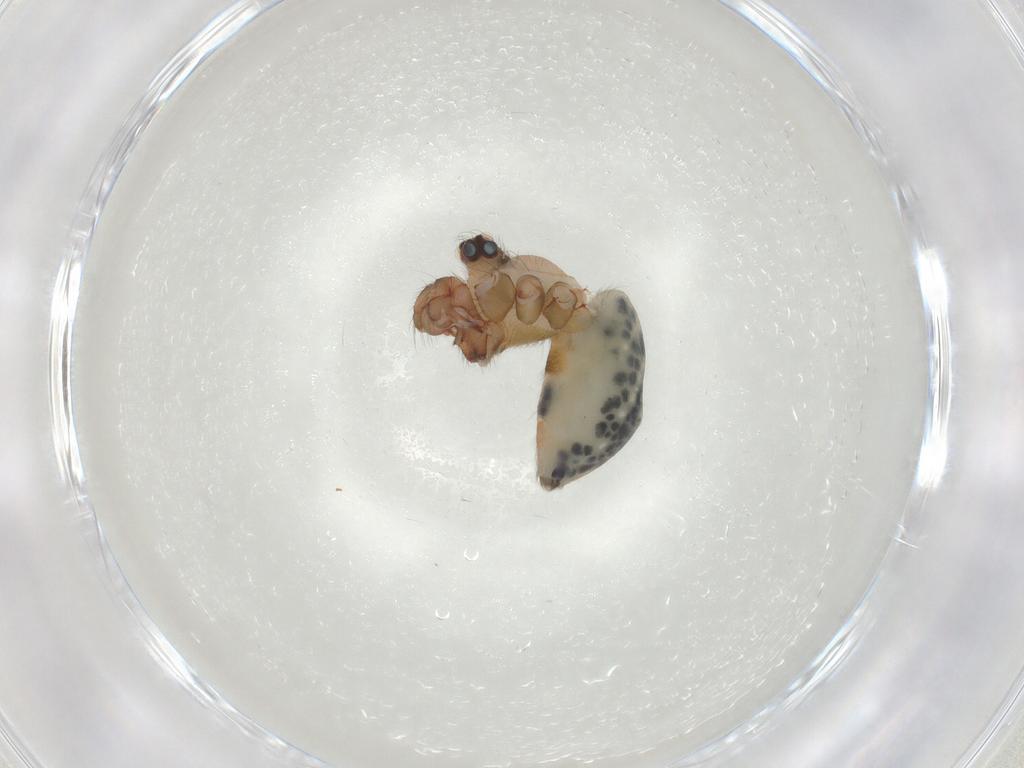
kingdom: Animalia
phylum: Arthropoda
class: Arachnida
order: Araneae
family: Pholcidae
